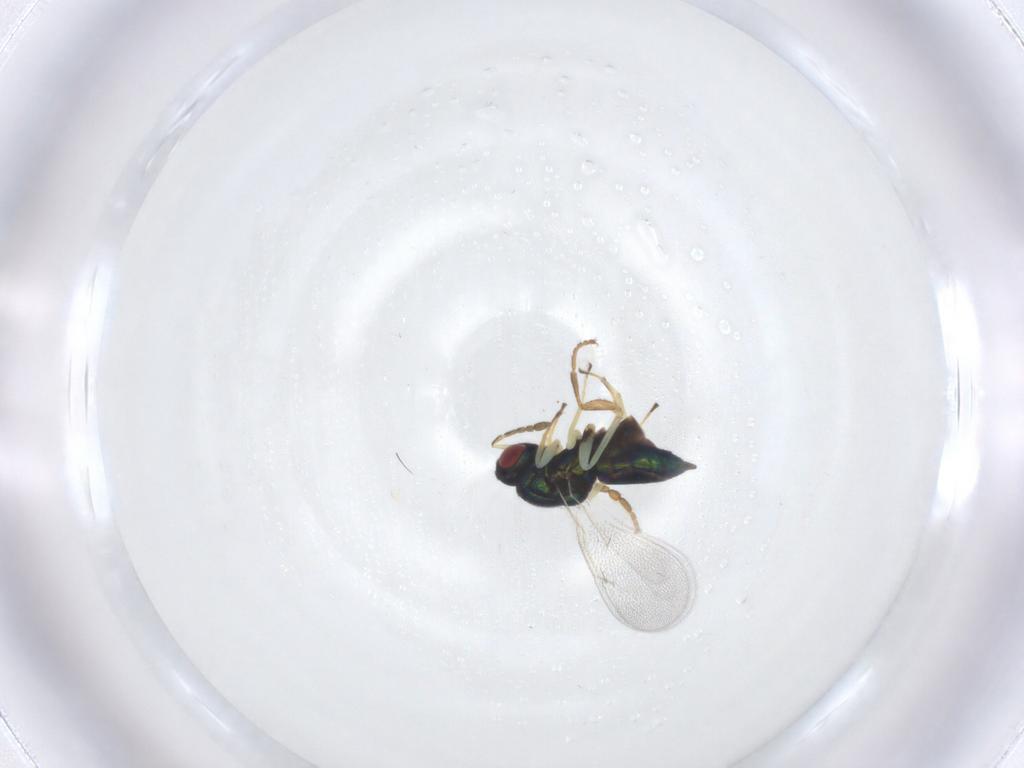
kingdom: Animalia
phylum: Arthropoda
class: Insecta
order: Hymenoptera
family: Eulophidae
